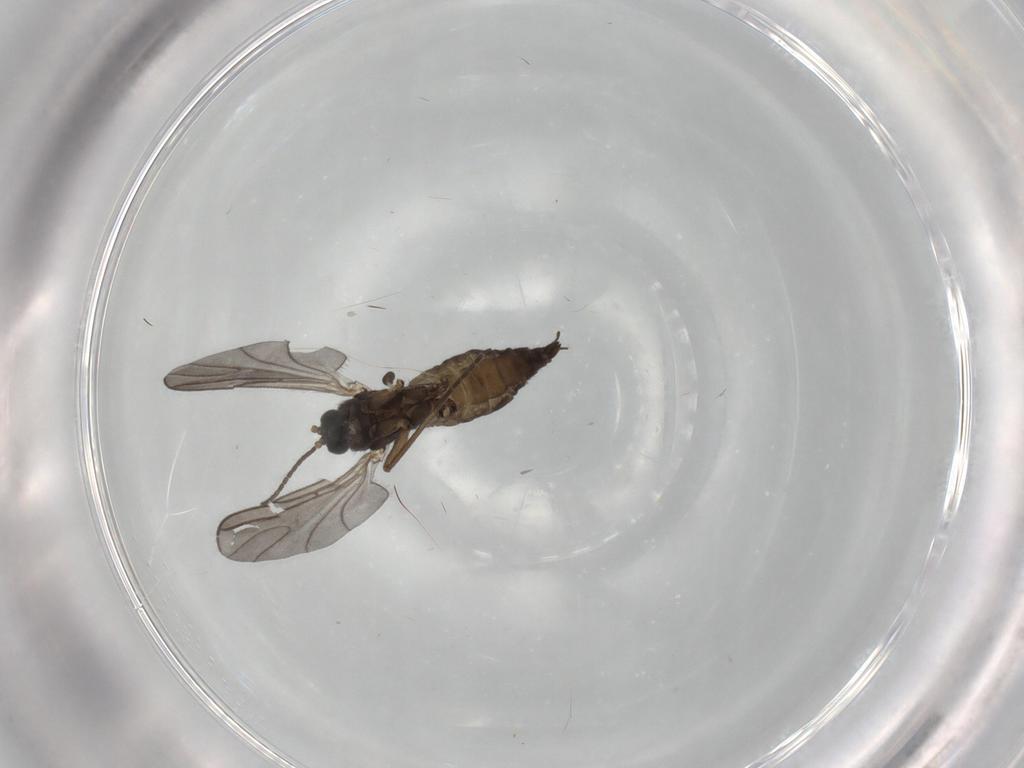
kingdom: Animalia
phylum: Arthropoda
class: Insecta
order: Diptera
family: Sciaridae
